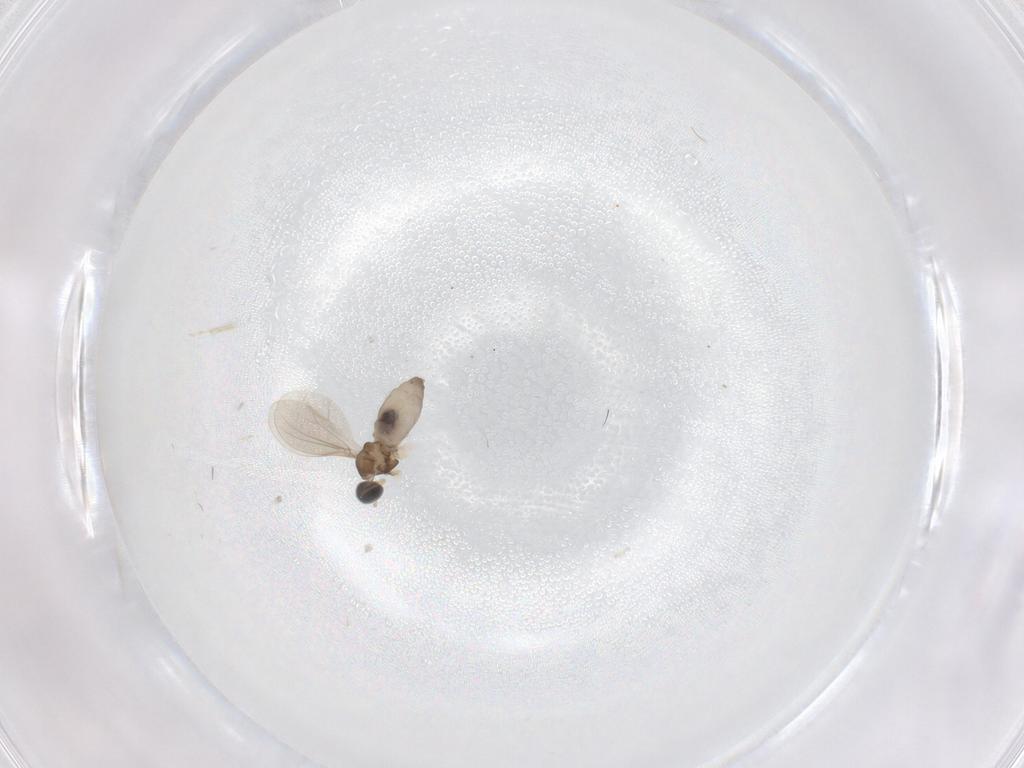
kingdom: Animalia
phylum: Arthropoda
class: Insecta
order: Diptera
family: Cecidomyiidae
